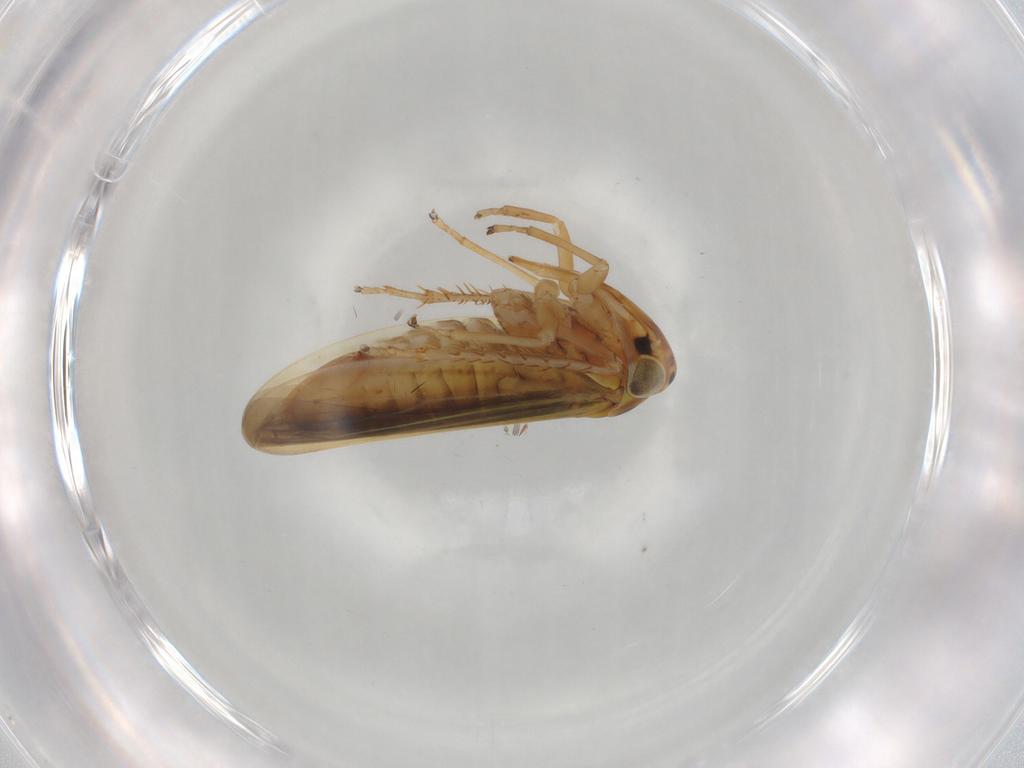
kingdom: Animalia
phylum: Arthropoda
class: Insecta
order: Hemiptera
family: Cicadellidae
